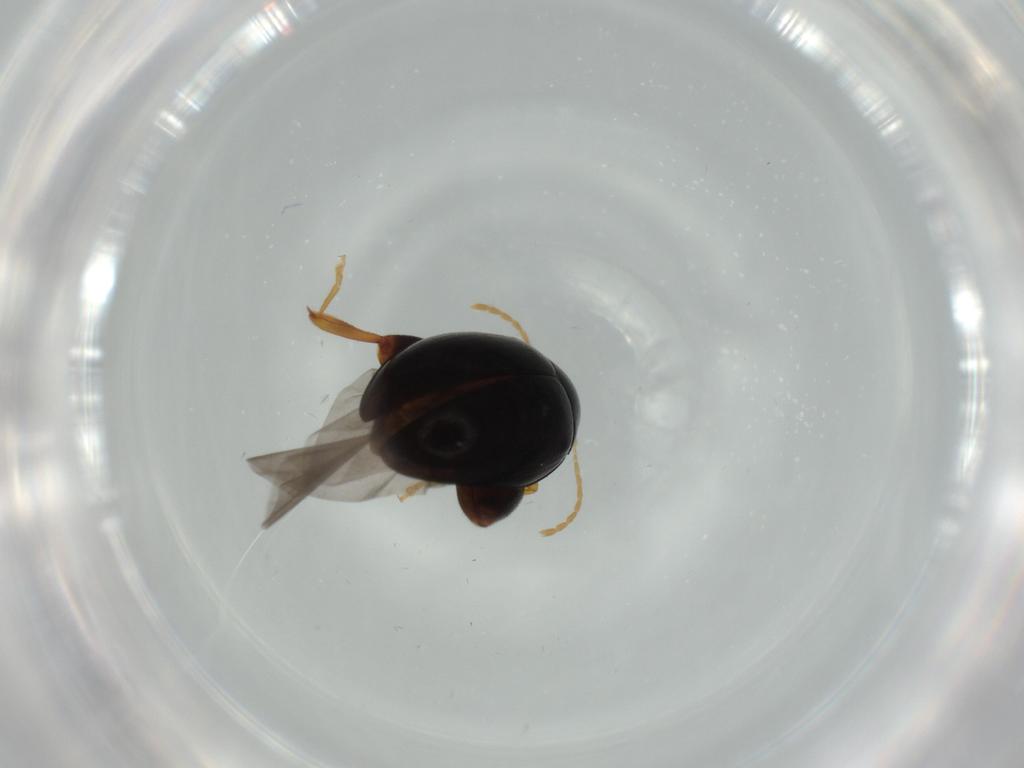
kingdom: Animalia
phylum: Arthropoda
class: Insecta
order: Coleoptera
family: Chrysomelidae
